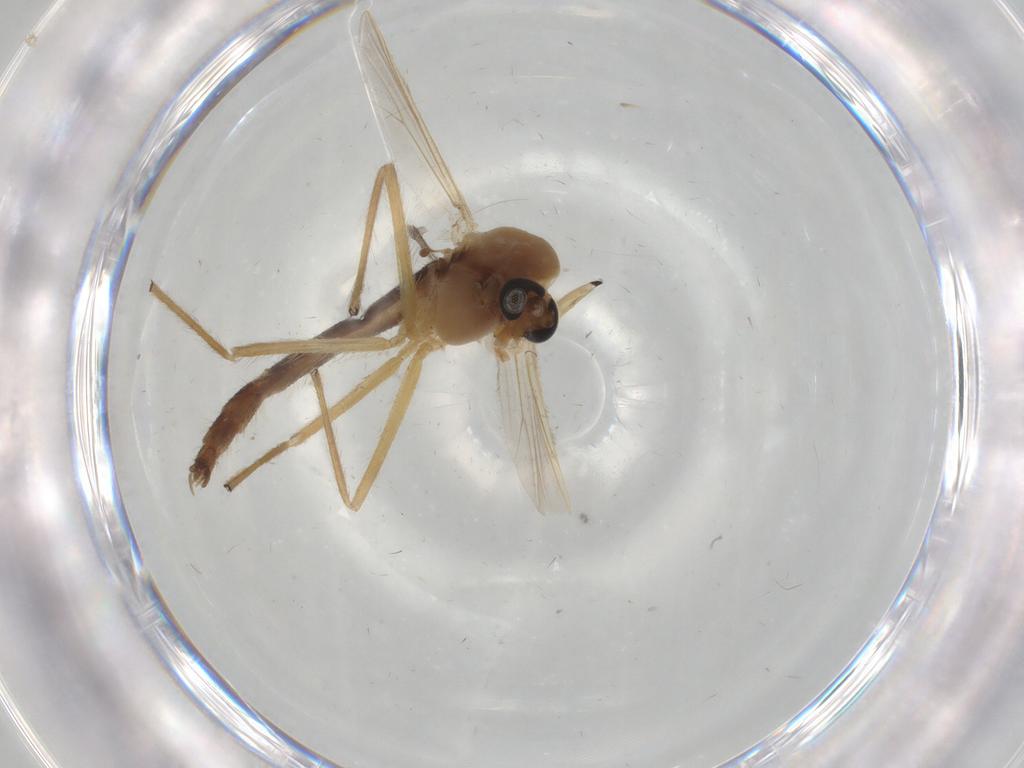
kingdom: Animalia
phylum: Arthropoda
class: Insecta
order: Diptera
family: Chironomidae
